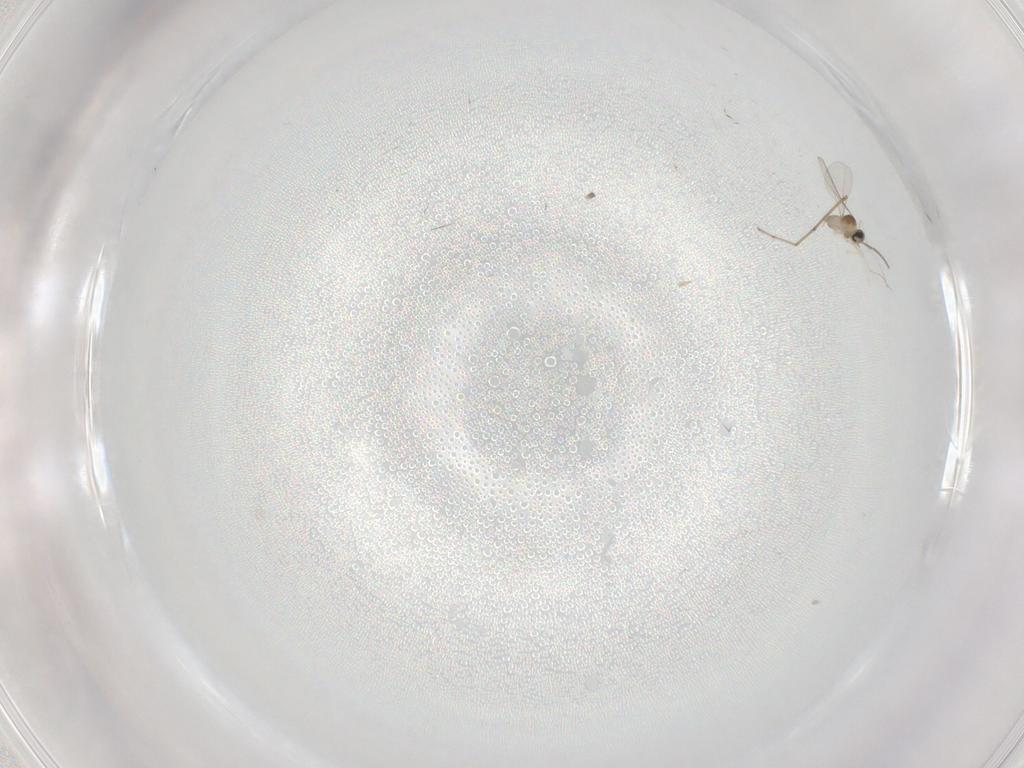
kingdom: Animalia
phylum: Arthropoda
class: Insecta
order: Diptera
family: Cecidomyiidae
